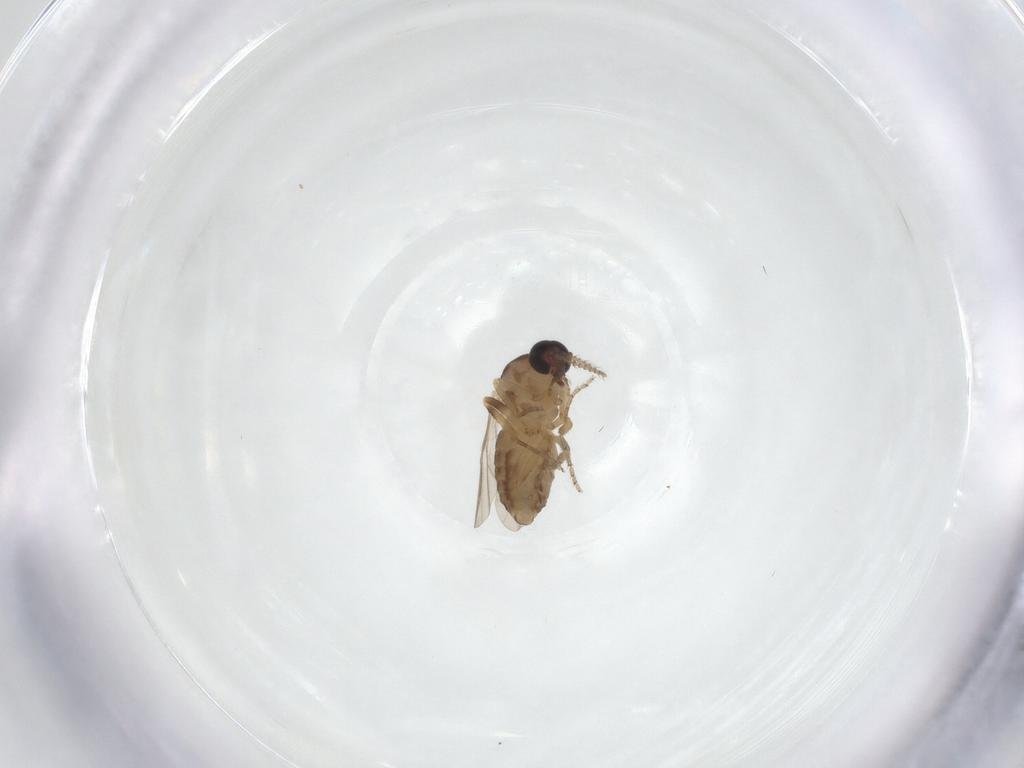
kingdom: Animalia
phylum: Arthropoda
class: Insecta
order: Diptera
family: Ceratopogonidae
